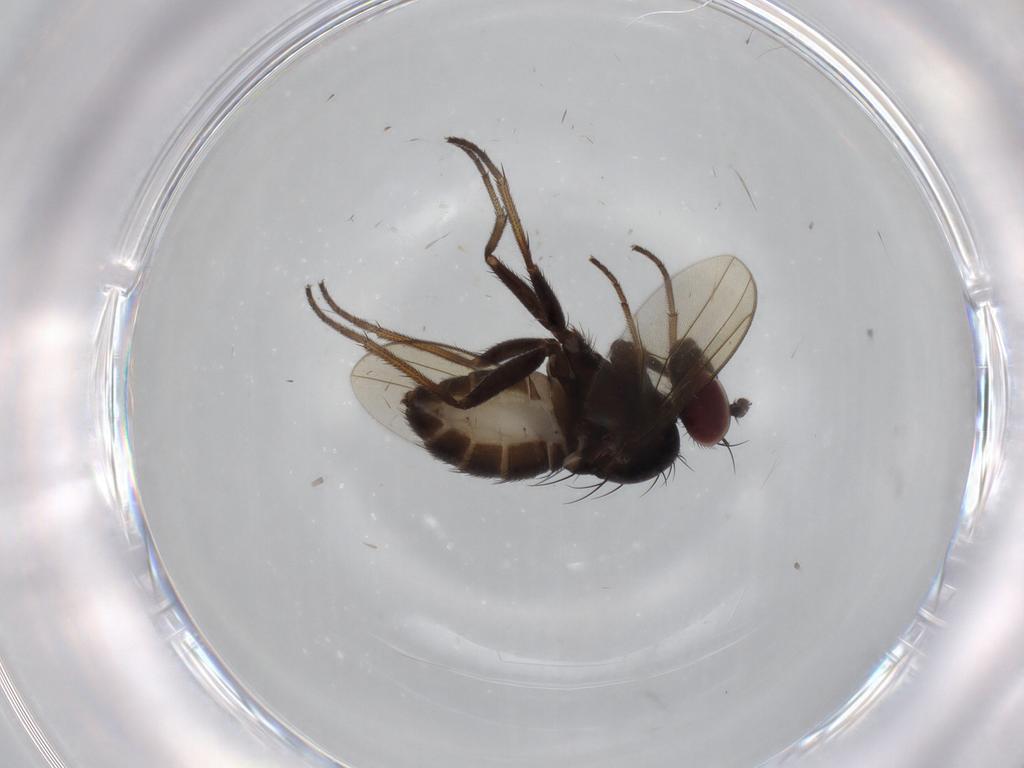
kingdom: Animalia
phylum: Arthropoda
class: Insecta
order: Diptera
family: Dolichopodidae
